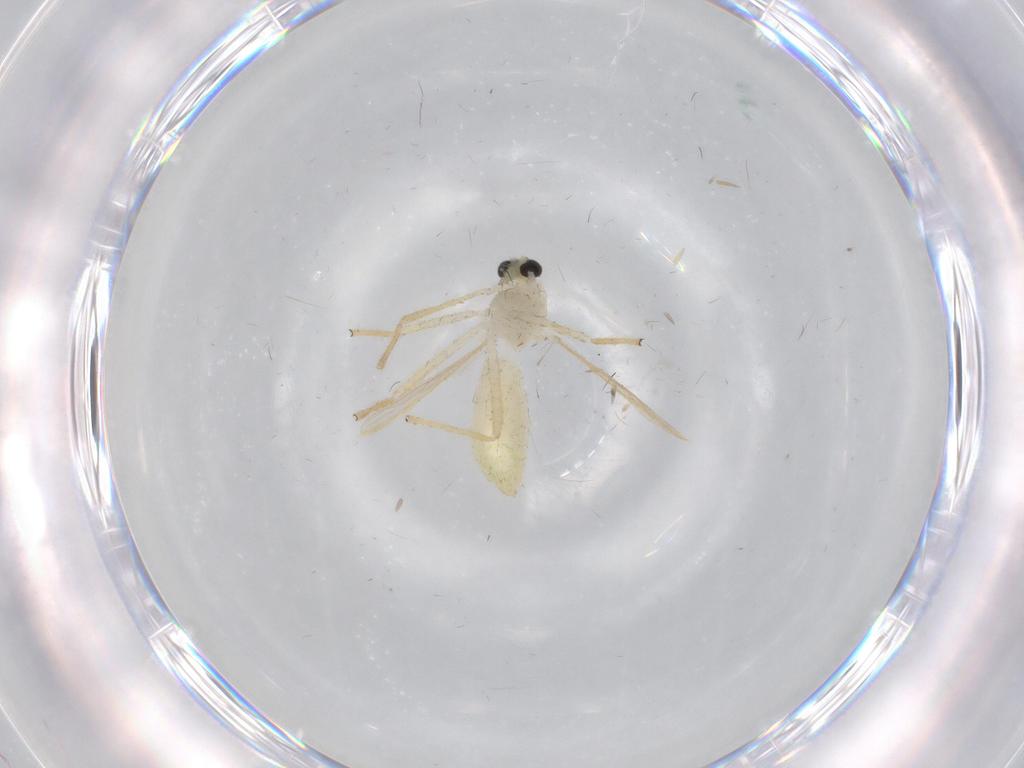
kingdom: Animalia
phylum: Arthropoda
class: Insecta
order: Diptera
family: Chironomidae
